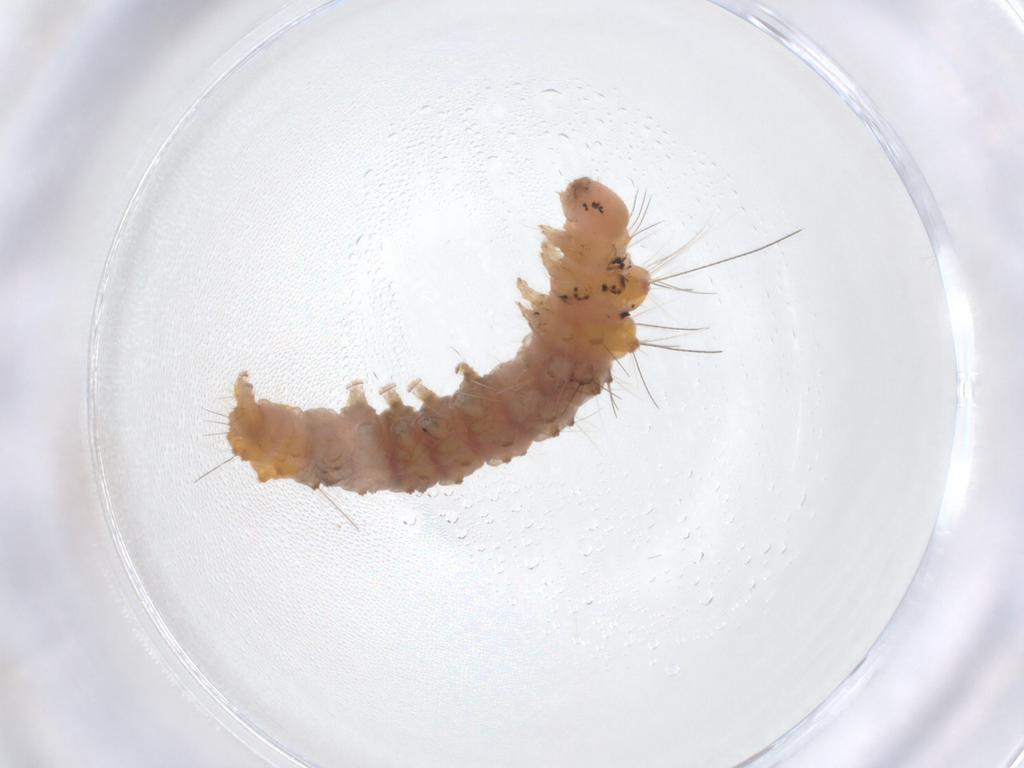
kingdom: Animalia
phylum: Arthropoda
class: Insecta
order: Lepidoptera
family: Erebidae
